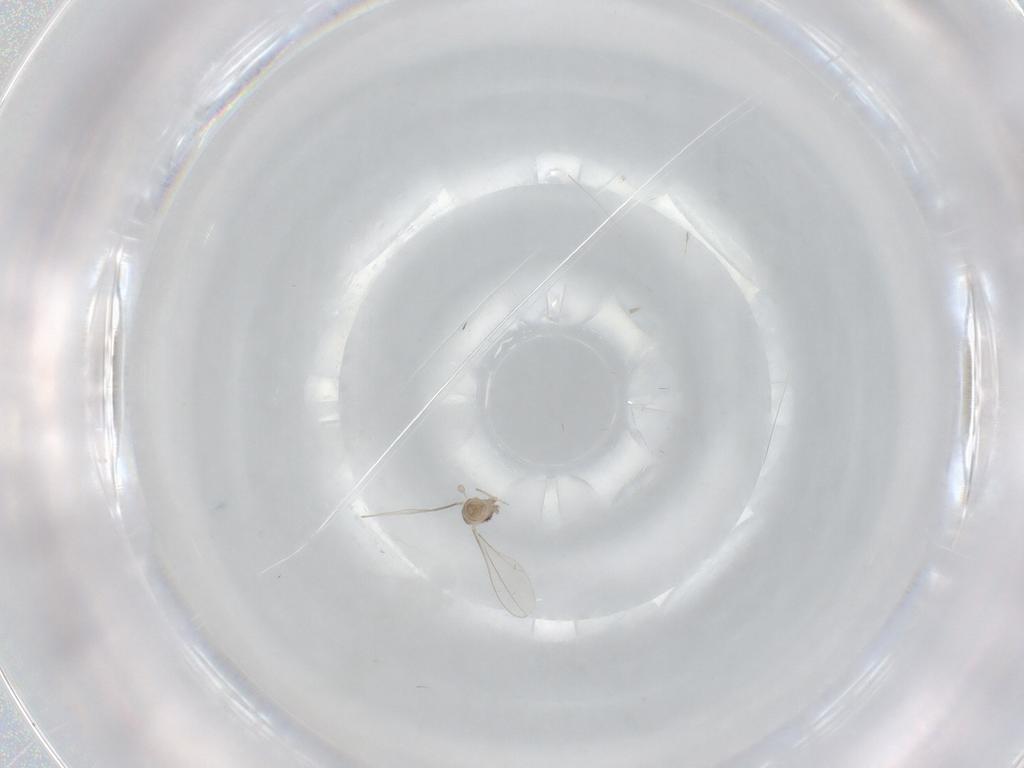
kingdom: Animalia
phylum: Arthropoda
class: Insecta
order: Diptera
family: Cecidomyiidae
